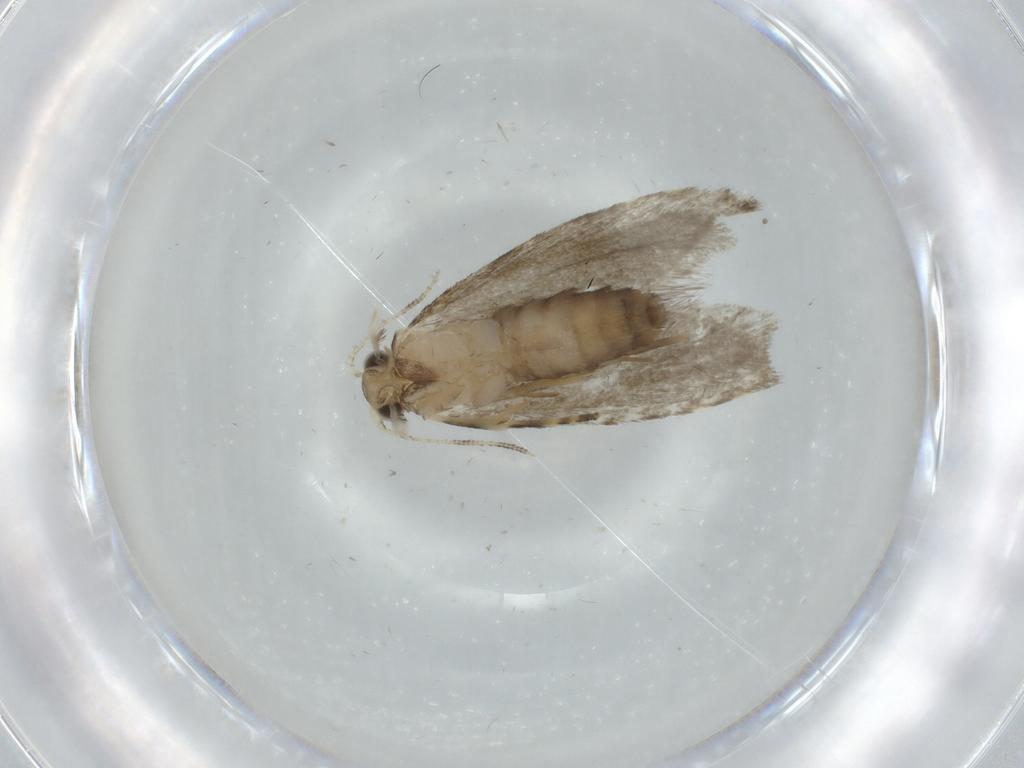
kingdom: Animalia
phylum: Arthropoda
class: Insecta
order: Lepidoptera
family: Tineidae
